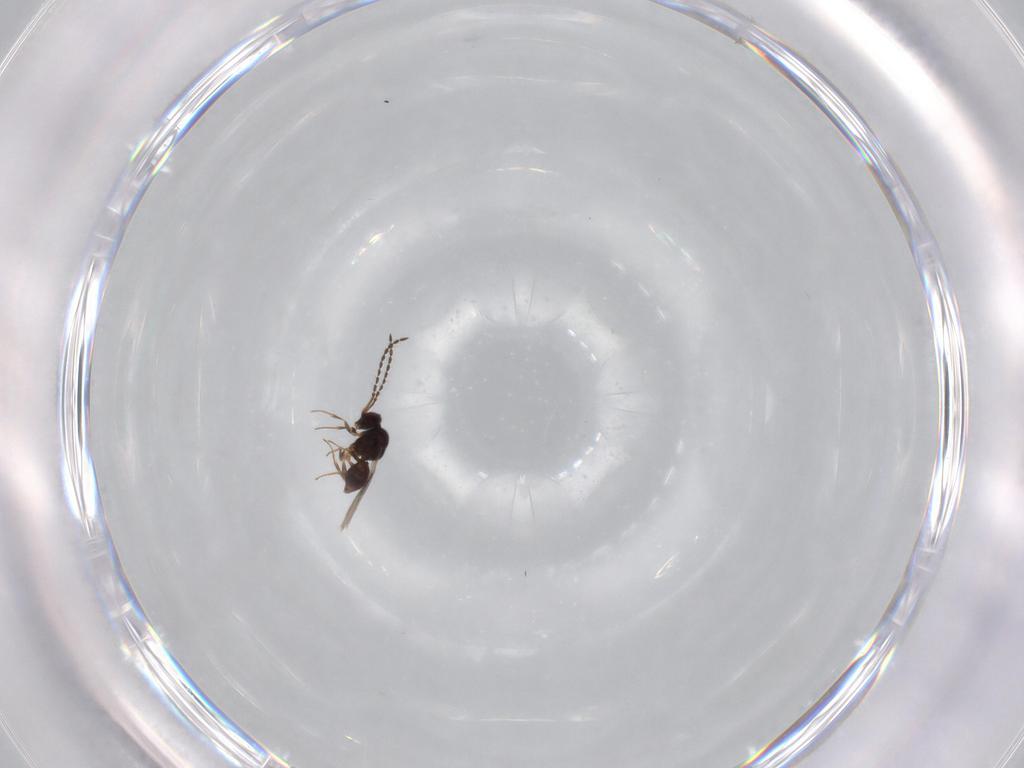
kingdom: Animalia
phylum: Arthropoda
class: Insecta
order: Hymenoptera
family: Ceraphronidae
